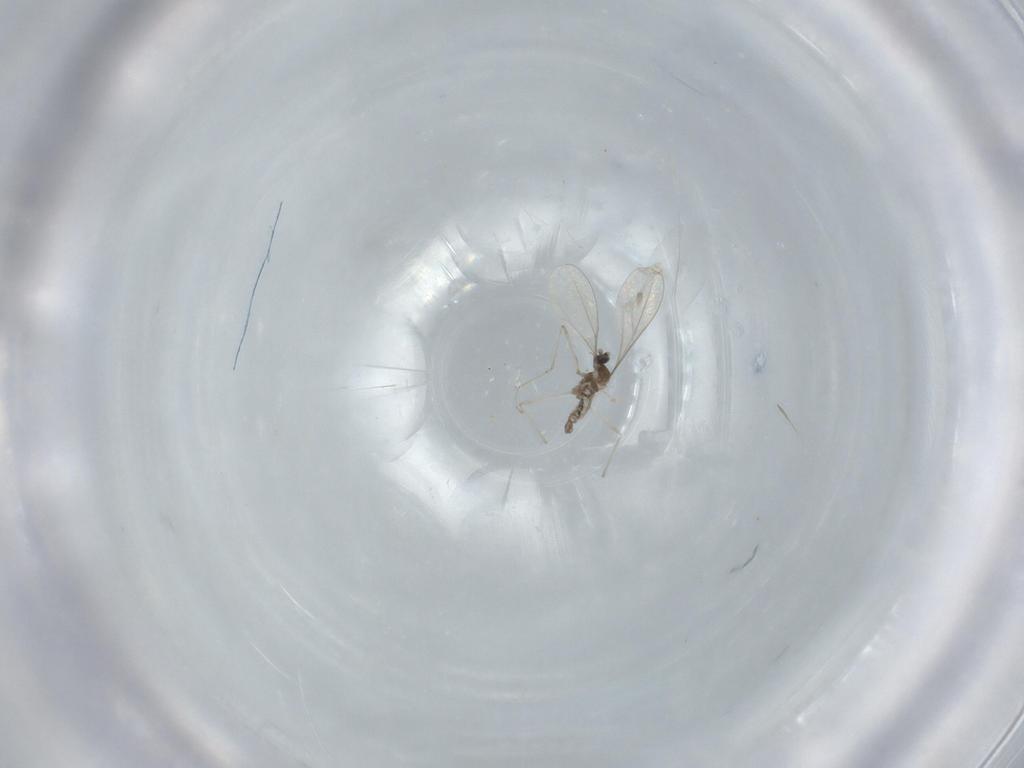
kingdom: Animalia
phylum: Arthropoda
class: Insecta
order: Diptera
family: Cecidomyiidae
